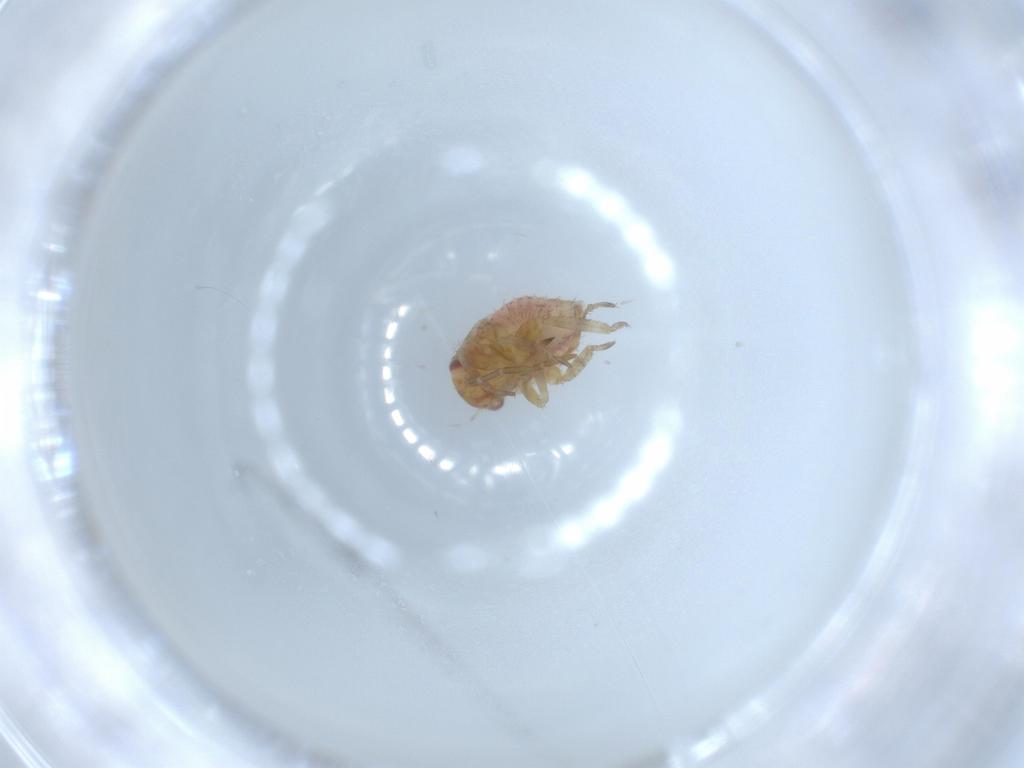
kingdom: Animalia
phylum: Arthropoda
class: Insecta
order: Hemiptera
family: Miridae
